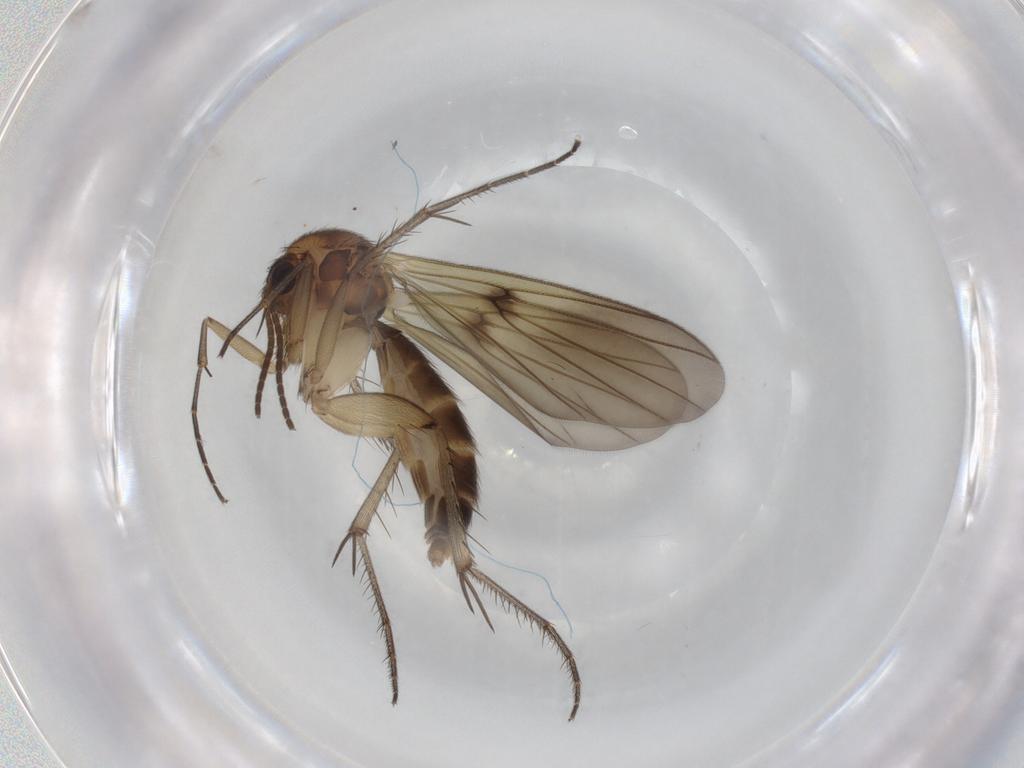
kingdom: Animalia
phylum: Arthropoda
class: Insecta
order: Diptera
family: Mycetophilidae
